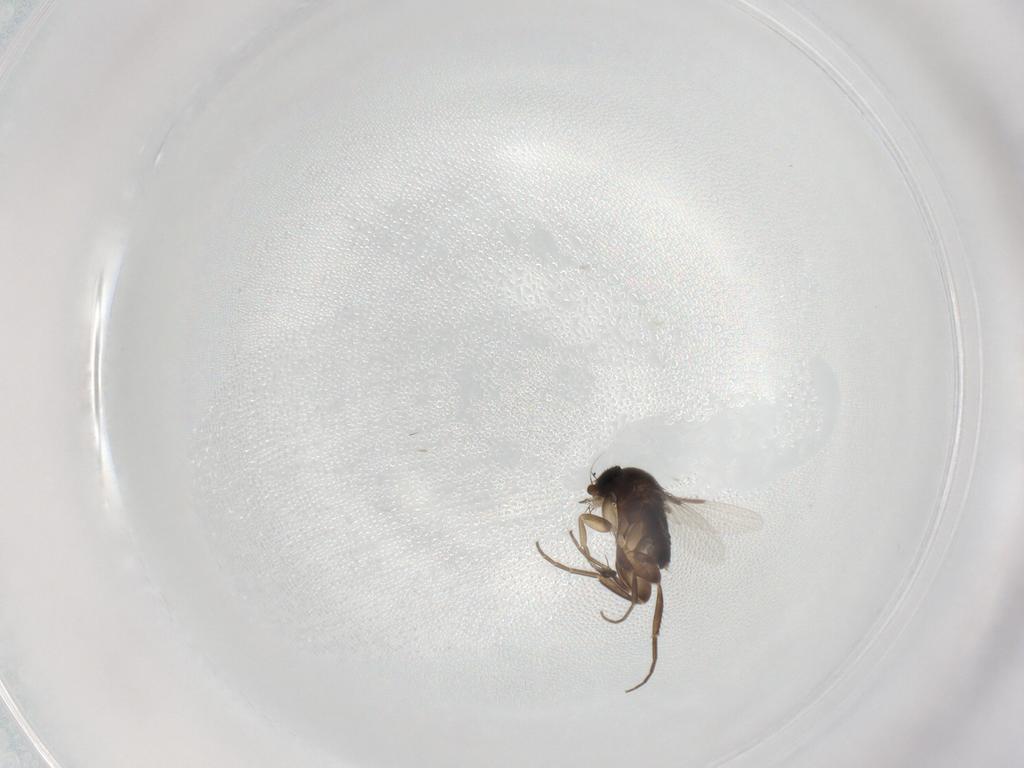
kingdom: Animalia
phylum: Arthropoda
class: Insecta
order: Diptera
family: Phoridae
